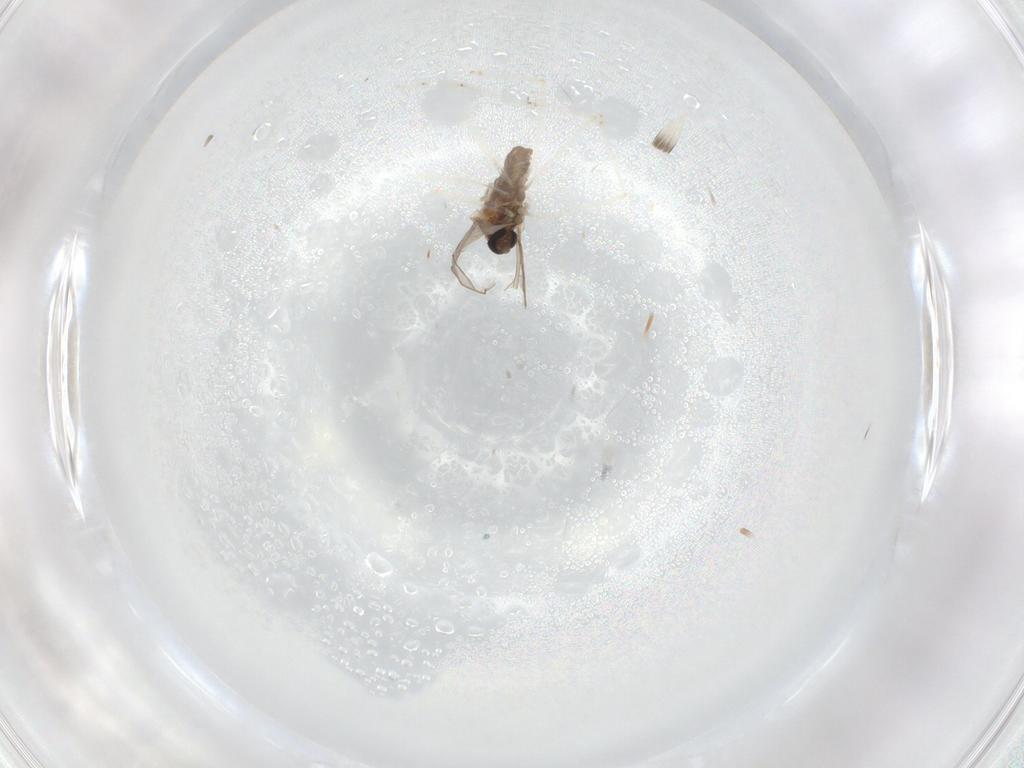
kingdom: Animalia
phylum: Arthropoda
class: Insecta
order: Diptera
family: Cecidomyiidae
